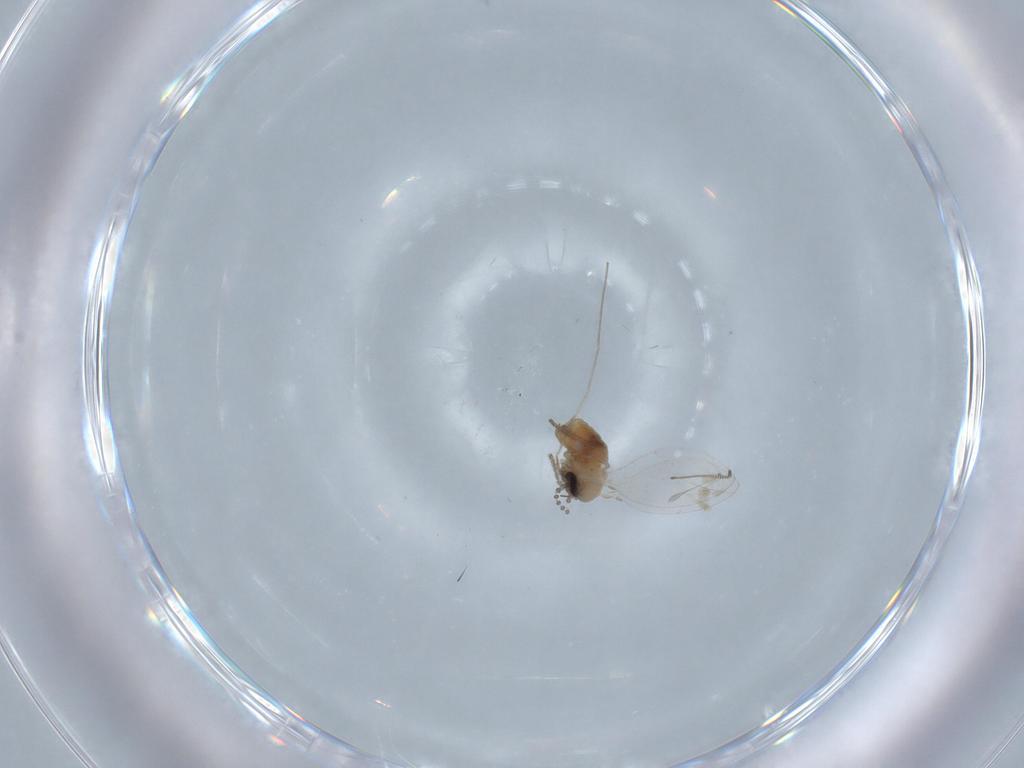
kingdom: Animalia
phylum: Arthropoda
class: Insecta
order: Diptera
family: Psychodidae
